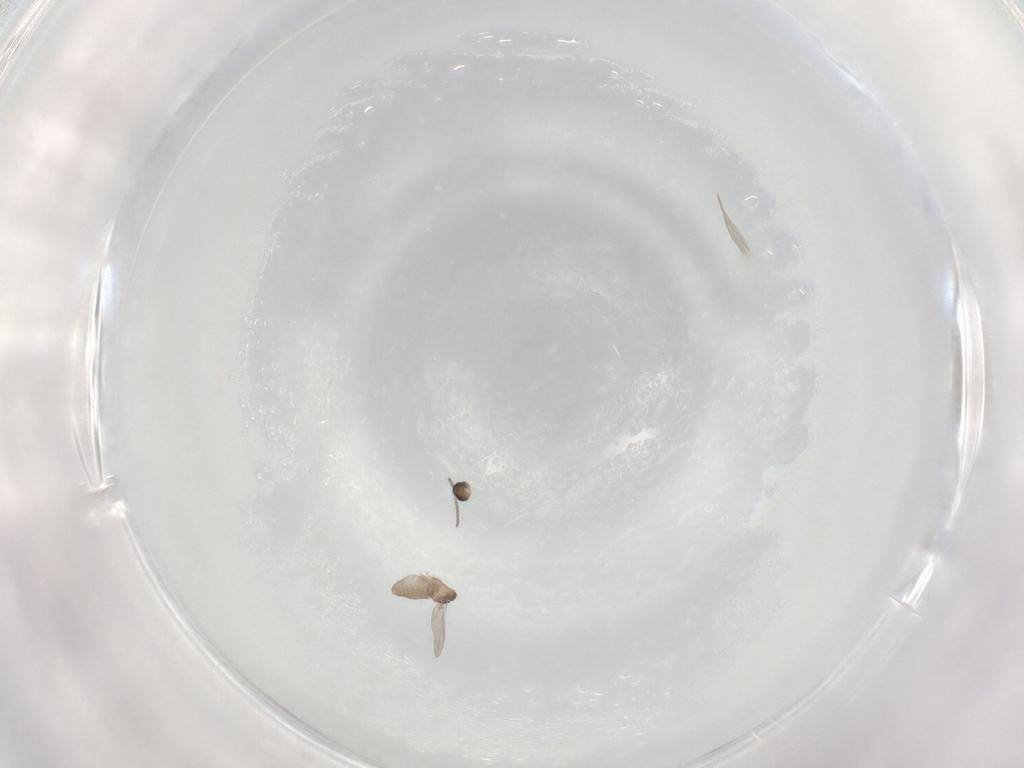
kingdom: Animalia
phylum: Arthropoda
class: Insecta
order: Diptera
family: Cecidomyiidae
